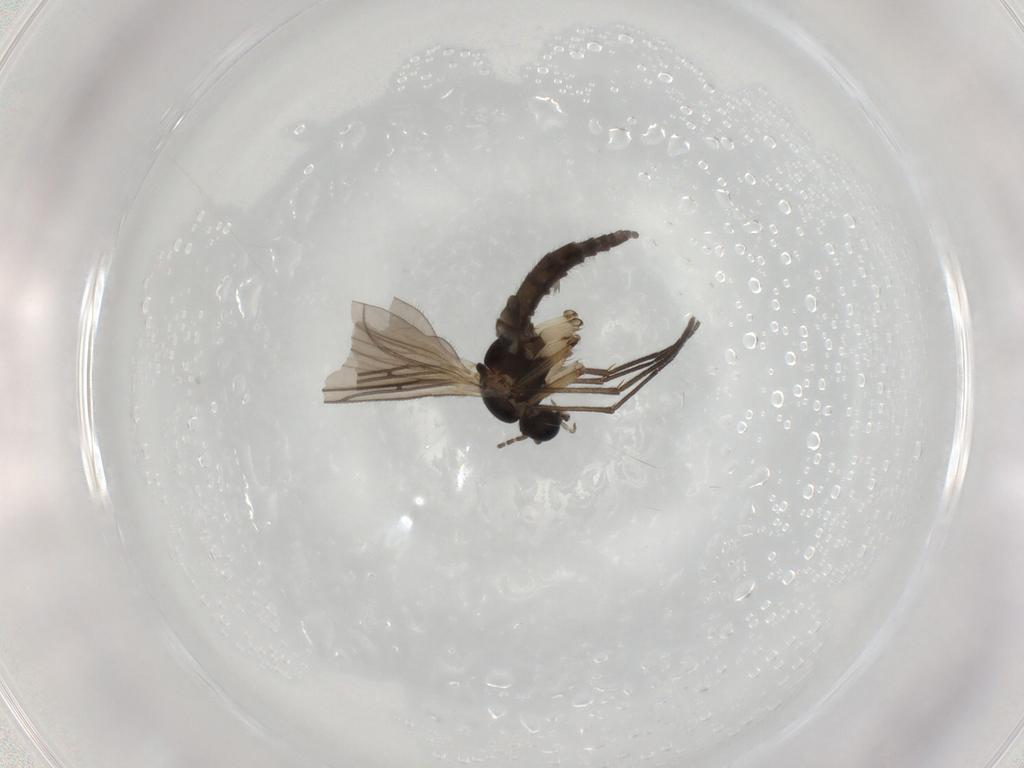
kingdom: Animalia
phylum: Arthropoda
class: Insecta
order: Diptera
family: Sciaridae
